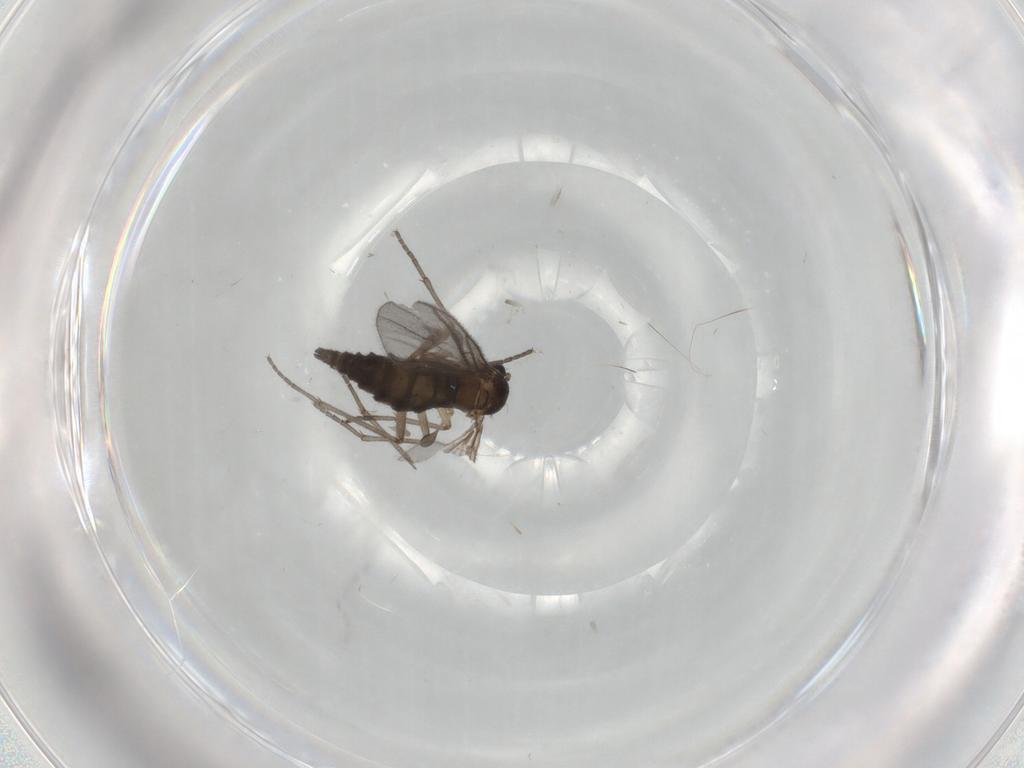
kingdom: Animalia
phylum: Arthropoda
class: Insecta
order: Diptera
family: Sciaridae
